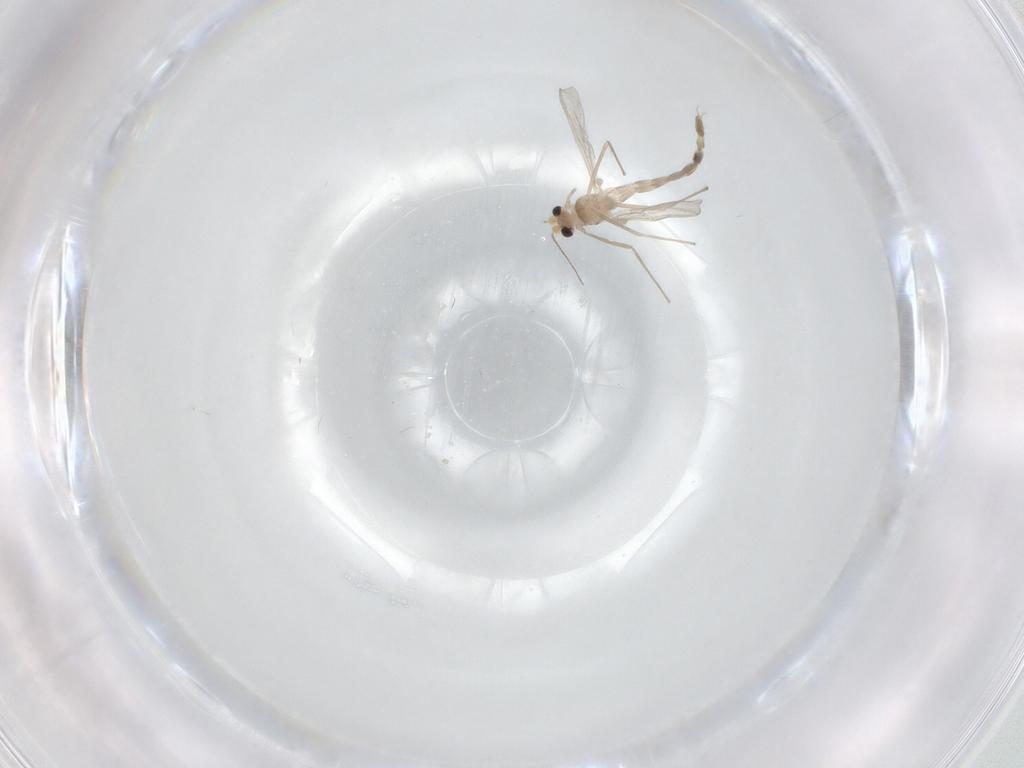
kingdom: Animalia
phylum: Arthropoda
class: Insecta
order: Diptera
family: Chironomidae
